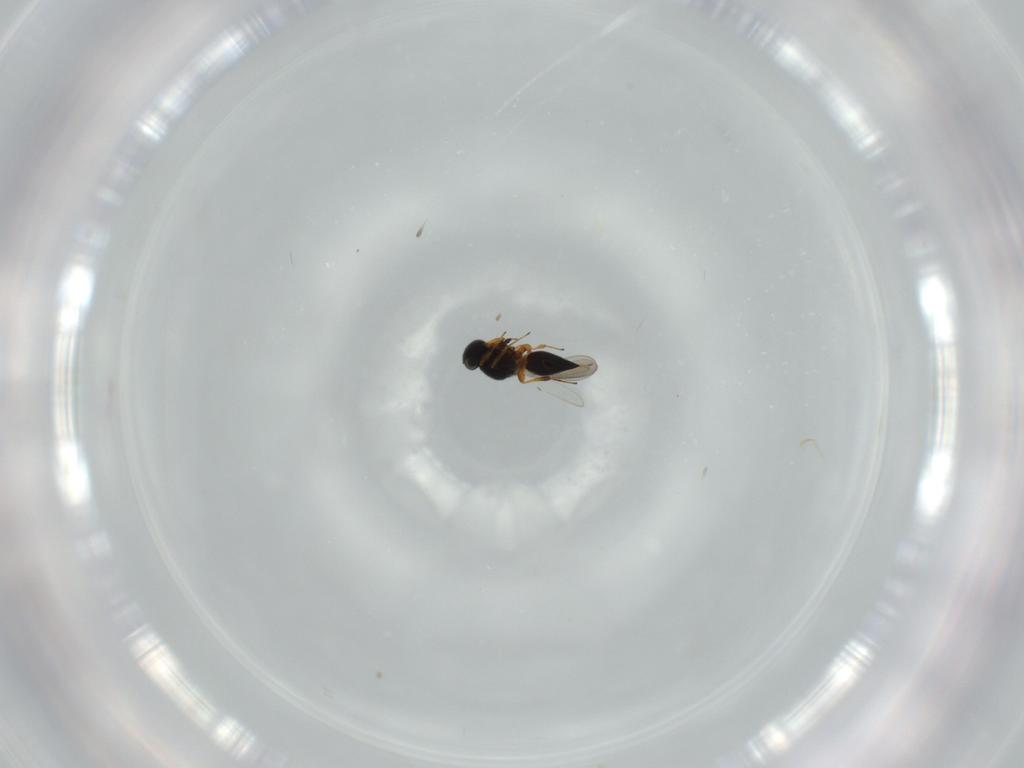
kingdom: Animalia
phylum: Arthropoda
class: Insecta
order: Hymenoptera
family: Platygastridae
